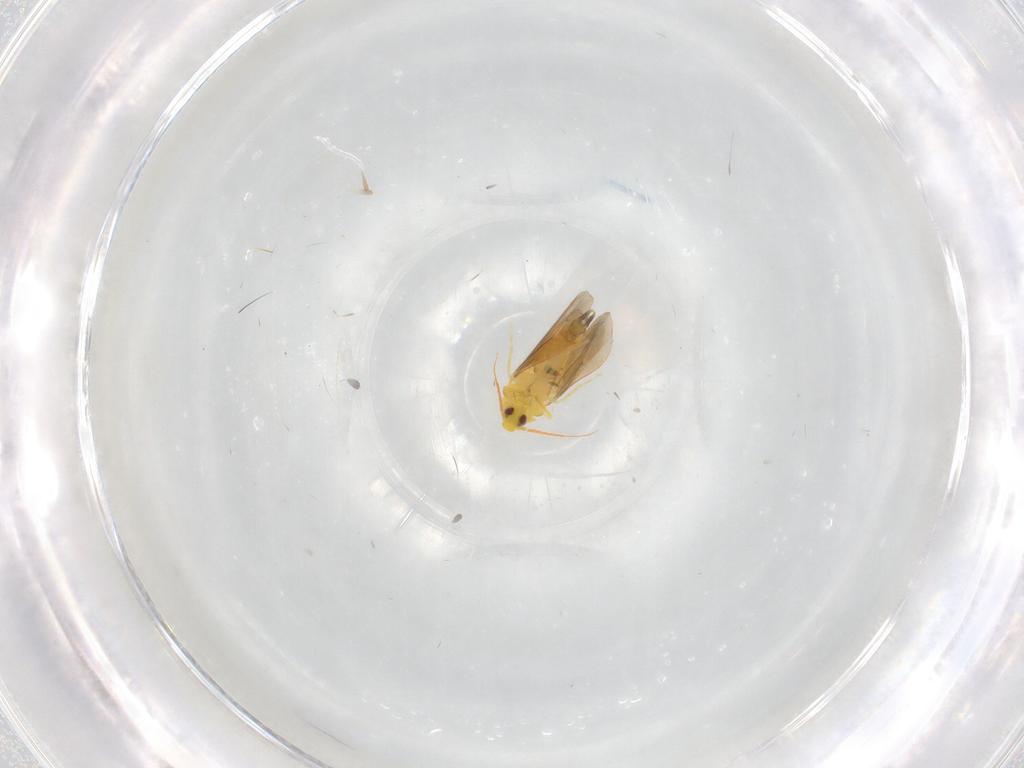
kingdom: Animalia
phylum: Arthropoda
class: Insecta
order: Hemiptera
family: Aleyrodidae
